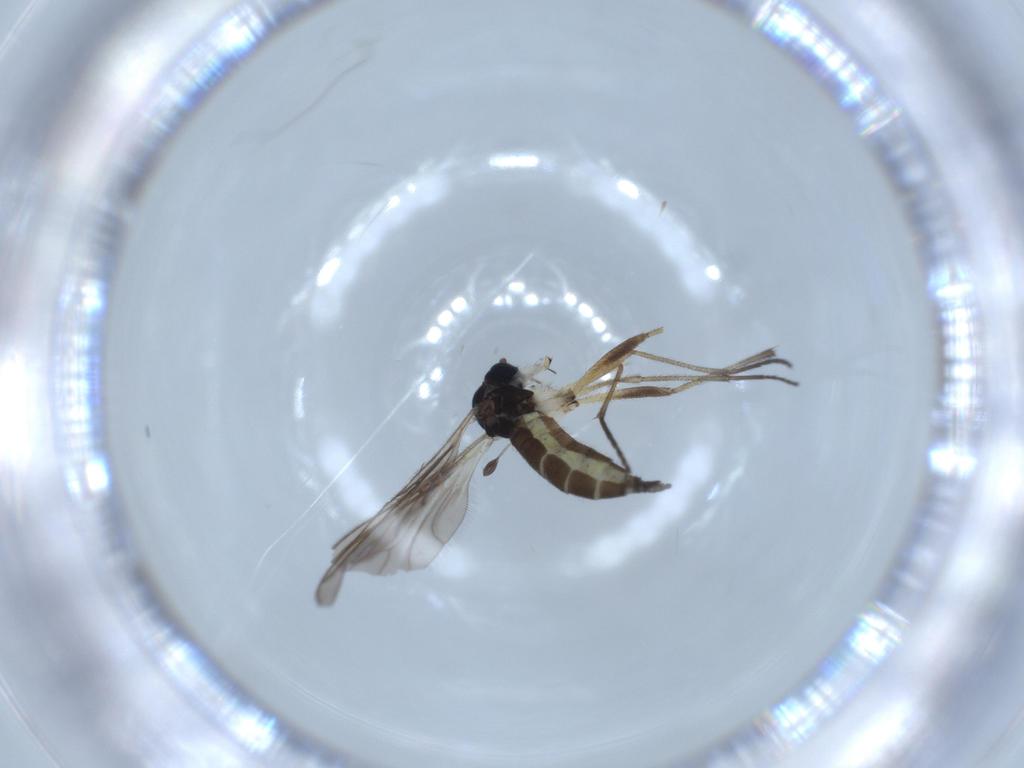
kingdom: Animalia
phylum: Arthropoda
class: Insecta
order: Diptera
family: Sciaridae
